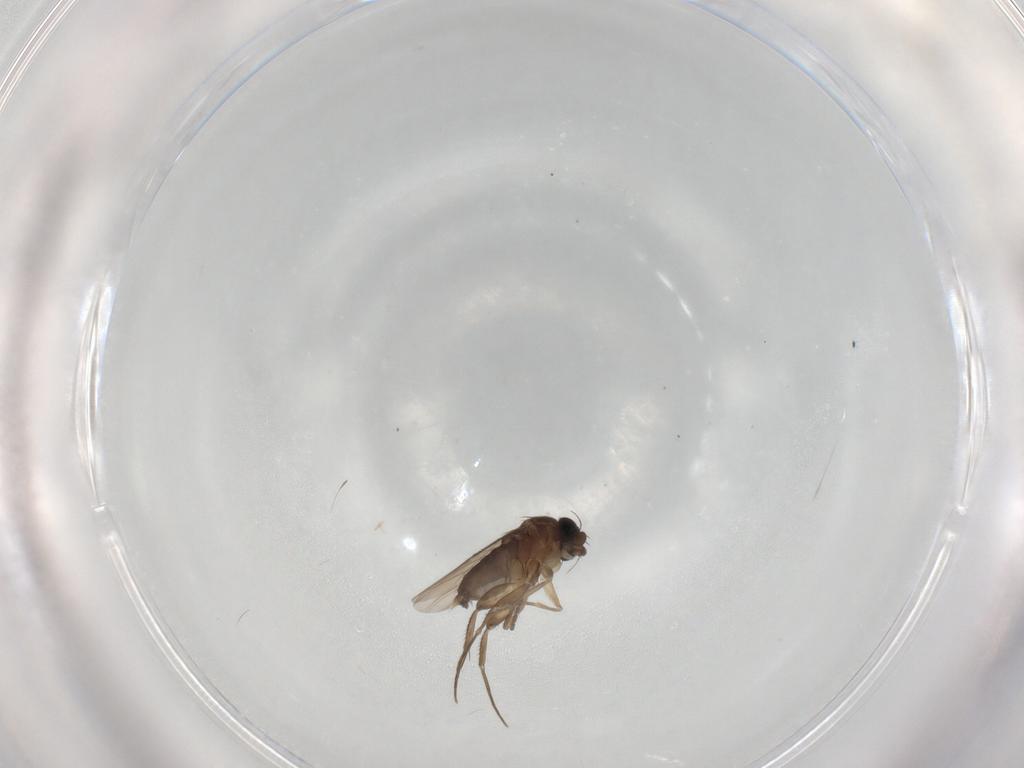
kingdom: Animalia
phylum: Arthropoda
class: Insecta
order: Diptera
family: Phoridae
